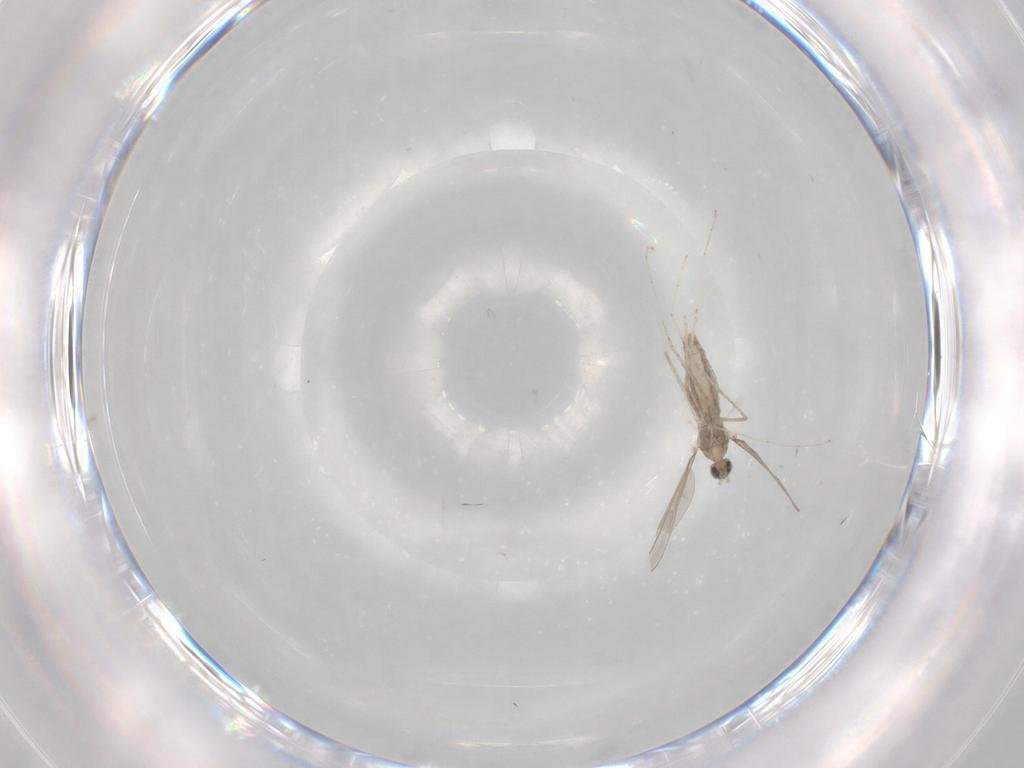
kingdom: Animalia
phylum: Arthropoda
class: Insecta
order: Diptera
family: Cecidomyiidae
